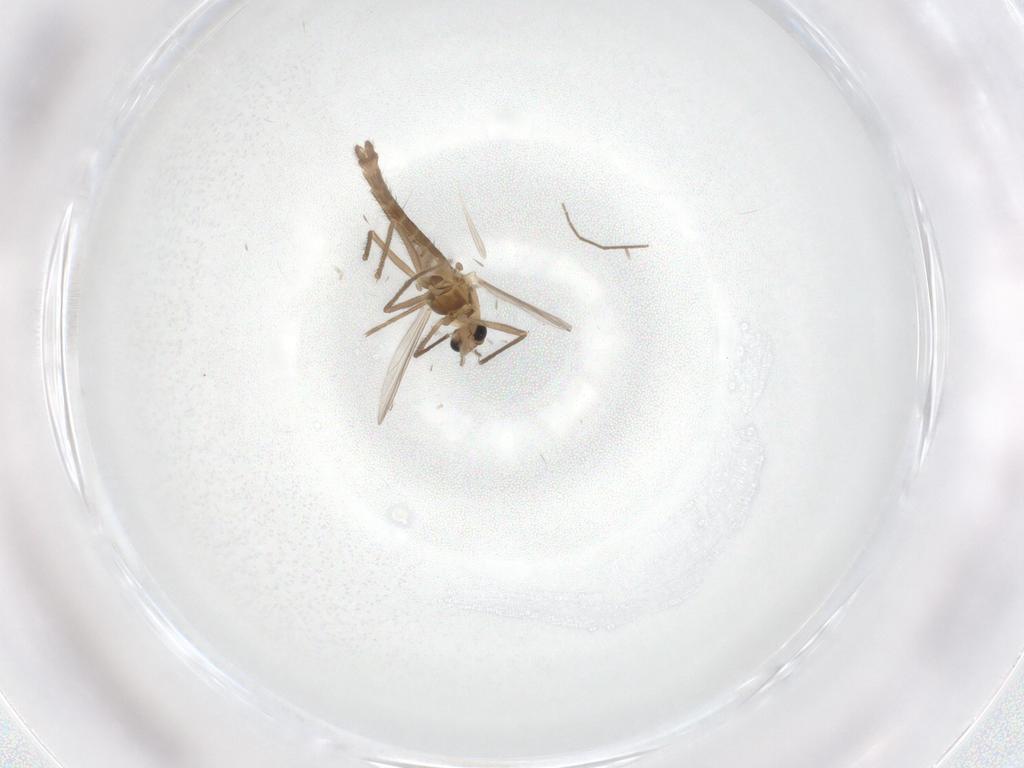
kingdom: Animalia
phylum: Arthropoda
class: Insecta
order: Diptera
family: Chironomidae
